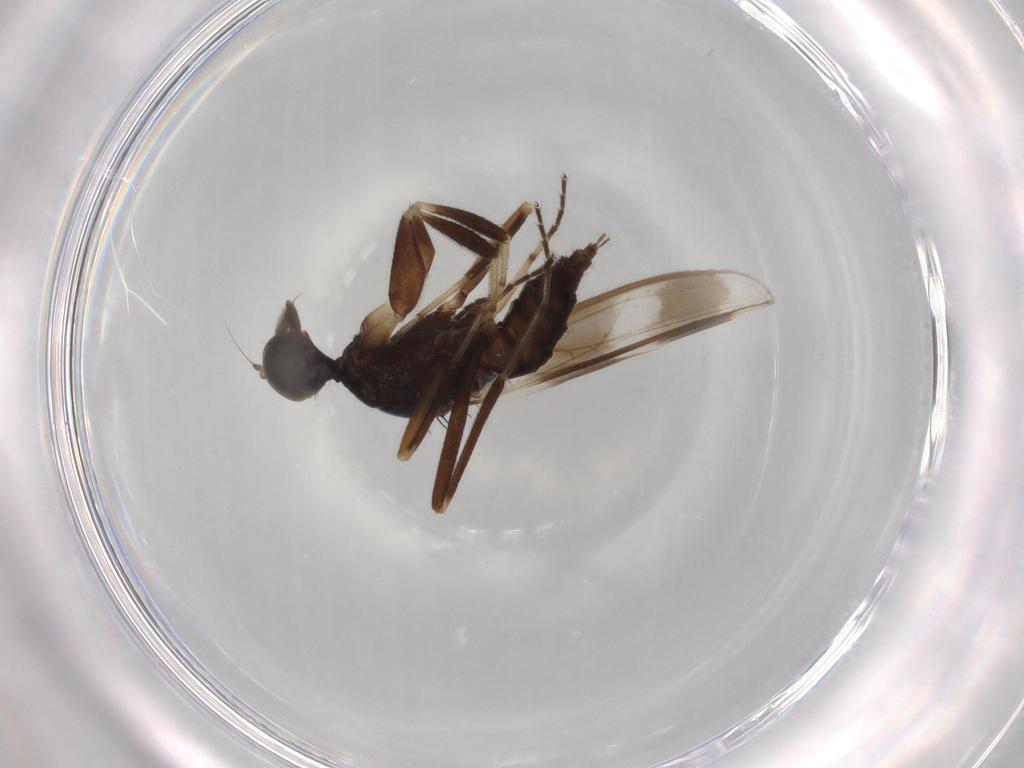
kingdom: Animalia
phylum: Arthropoda
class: Insecta
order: Diptera
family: Hybotidae
